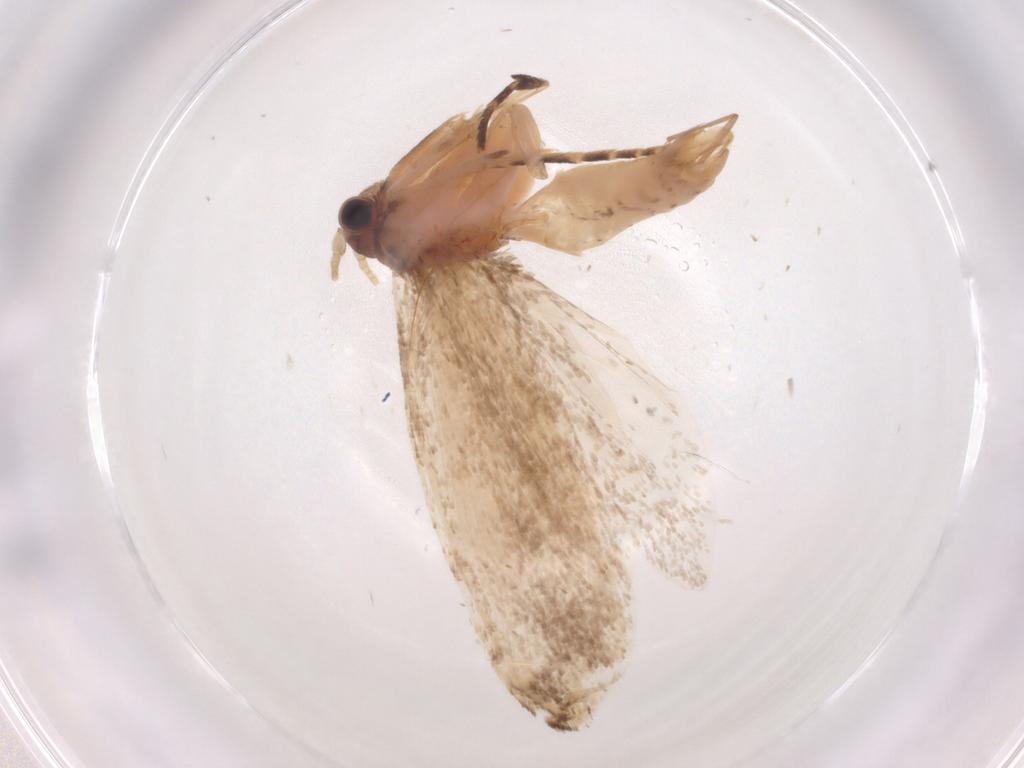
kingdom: Animalia
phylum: Arthropoda
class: Insecta
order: Lepidoptera
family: Tineidae
